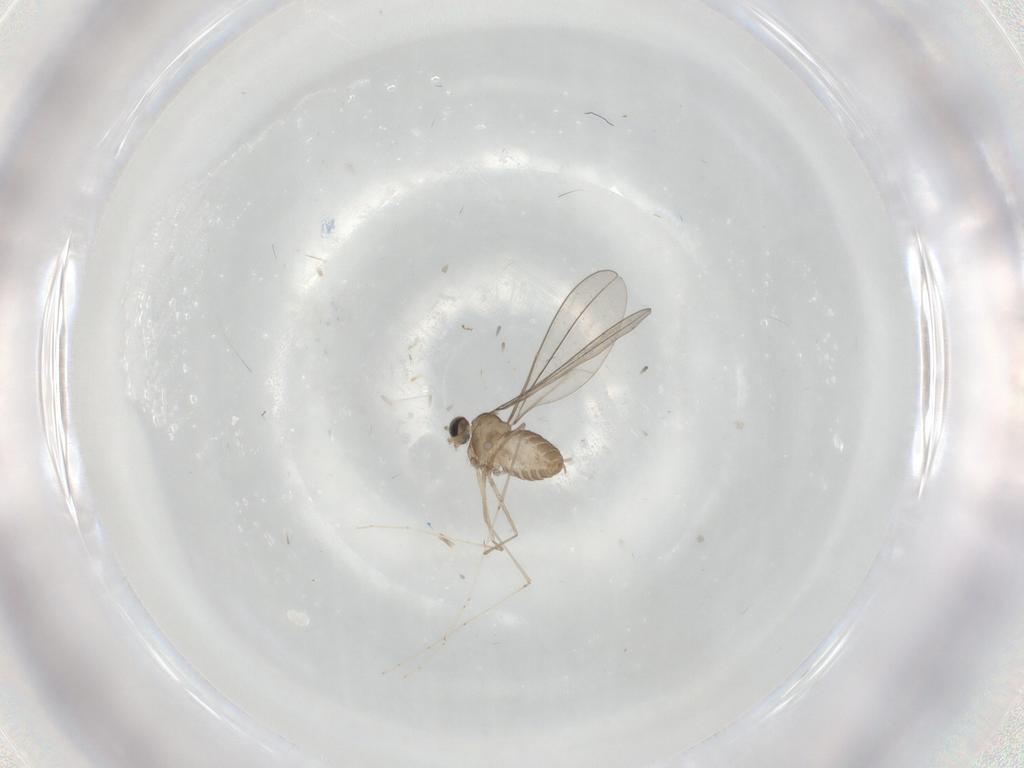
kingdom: Animalia
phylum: Arthropoda
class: Insecta
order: Diptera
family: Cecidomyiidae
